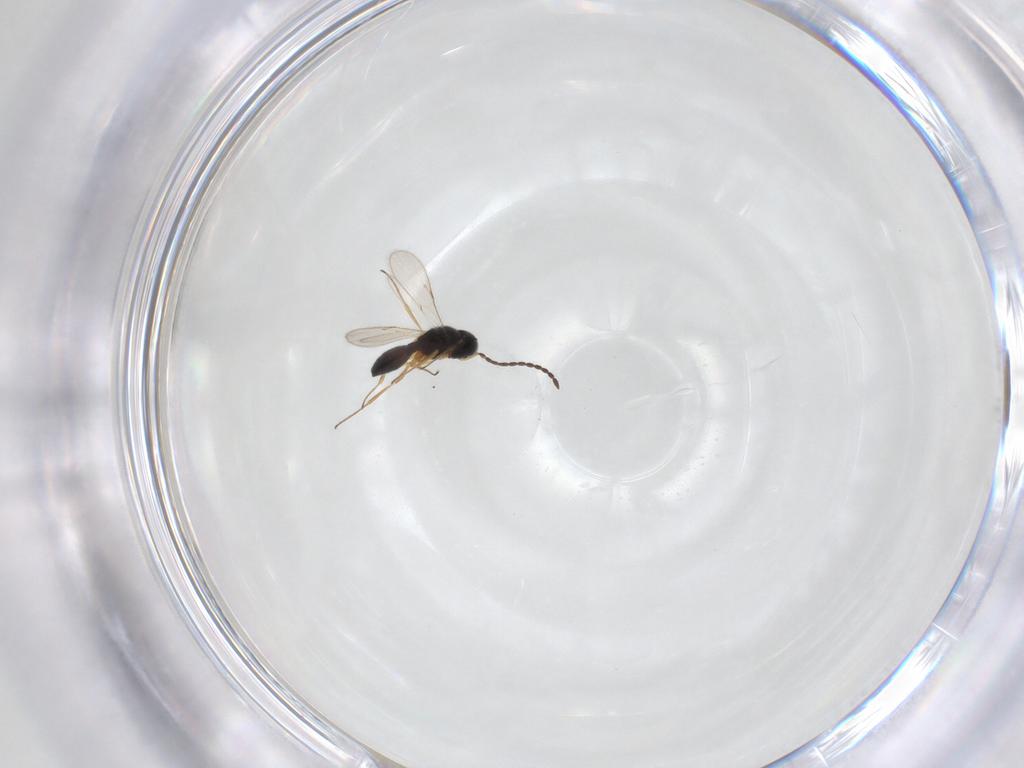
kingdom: Animalia
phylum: Arthropoda
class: Insecta
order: Hymenoptera
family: Scelionidae
